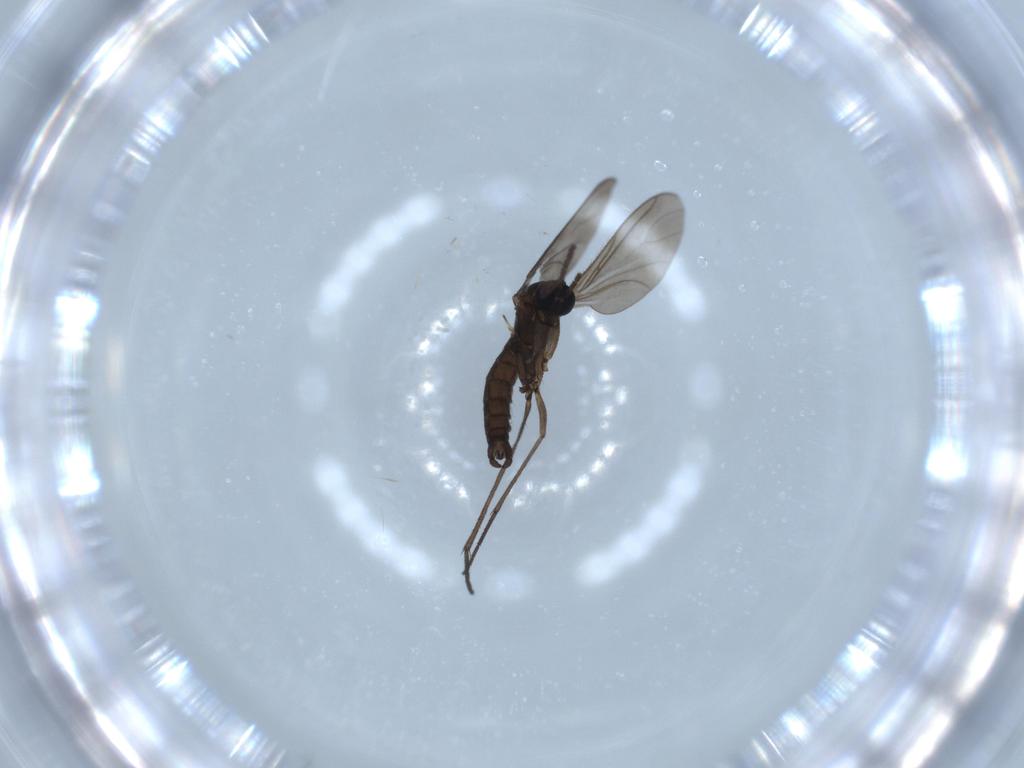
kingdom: Animalia
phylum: Arthropoda
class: Insecta
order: Diptera
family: Sciaridae
